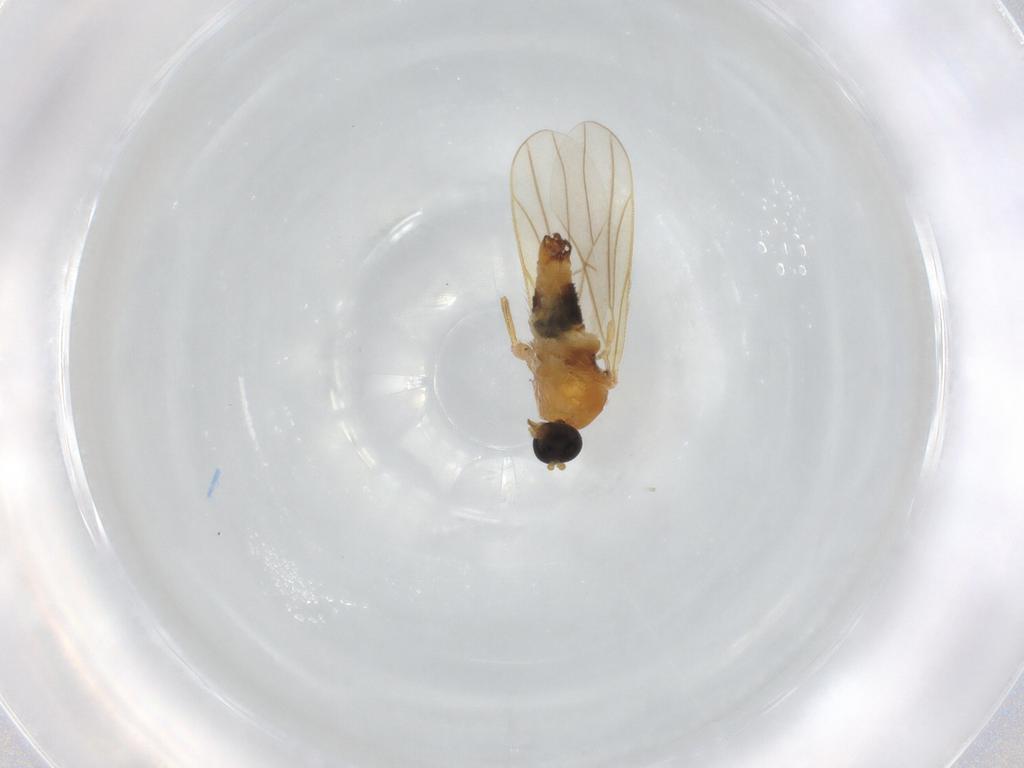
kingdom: Animalia
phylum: Arthropoda
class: Insecta
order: Diptera
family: Hybotidae
